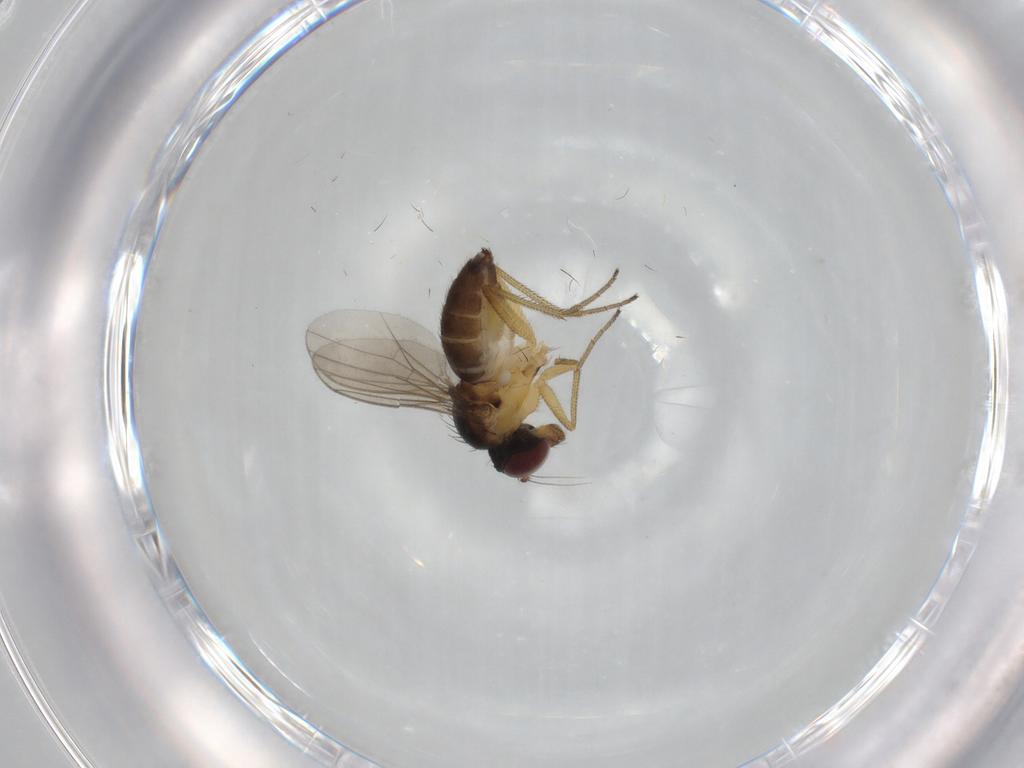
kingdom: Animalia
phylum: Arthropoda
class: Insecta
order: Diptera
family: Dolichopodidae
